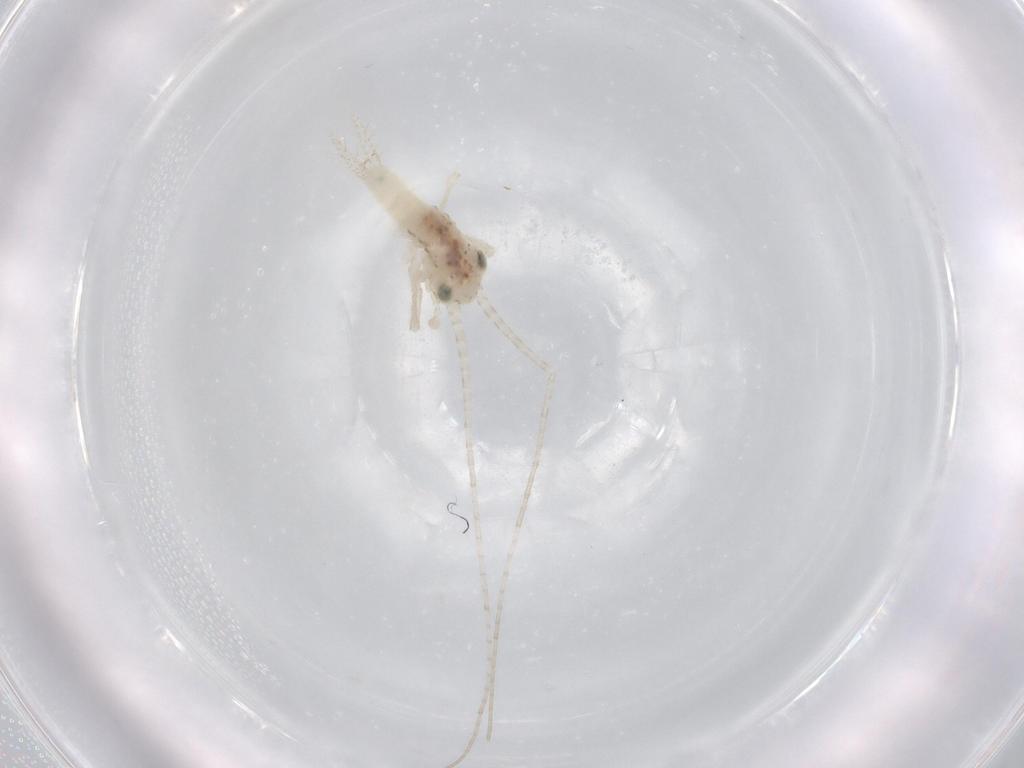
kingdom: Animalia
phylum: Arthropoda
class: Insecta
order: Orthoptera
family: Trigonidiidae
